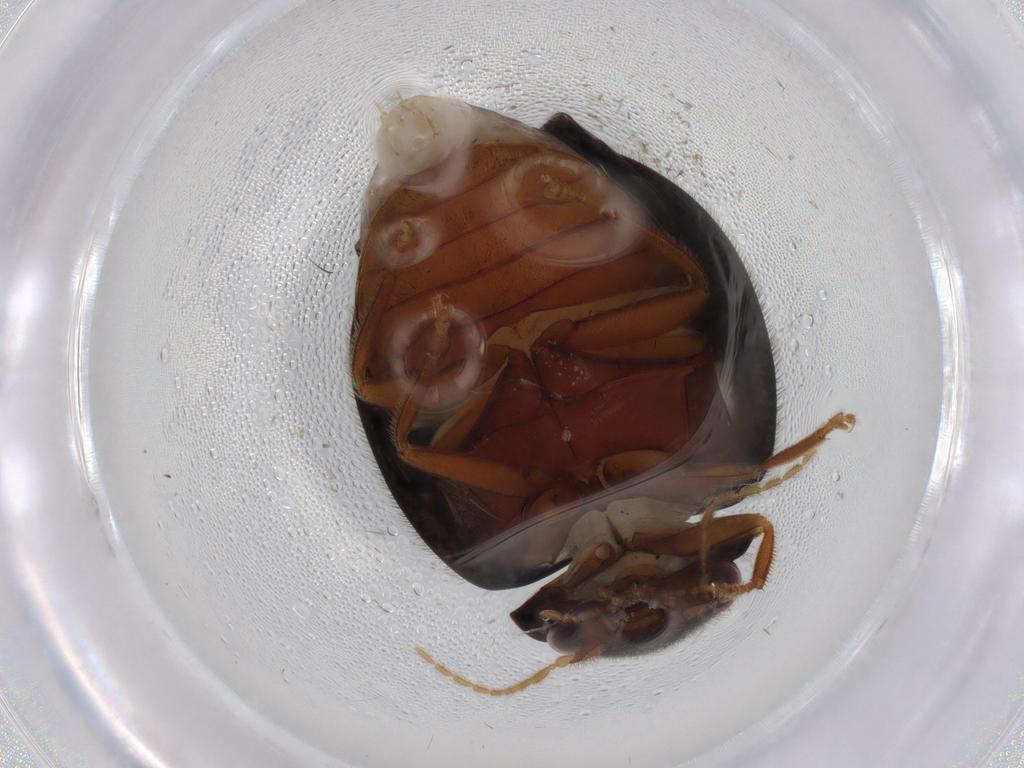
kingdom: Animalia
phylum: Arthropoda
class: Insecta
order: Coleoptera
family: Scirtidae
